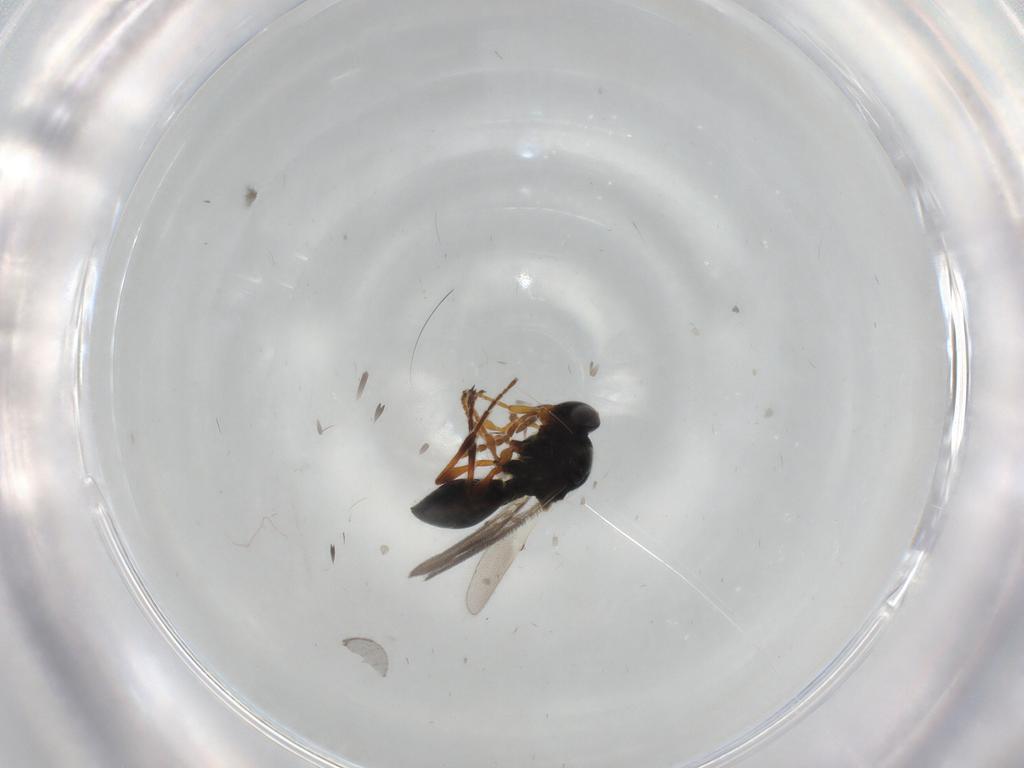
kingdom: Animalia
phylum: Arthropoda
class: Insecta
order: Hymenoptera
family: Platygastridae
